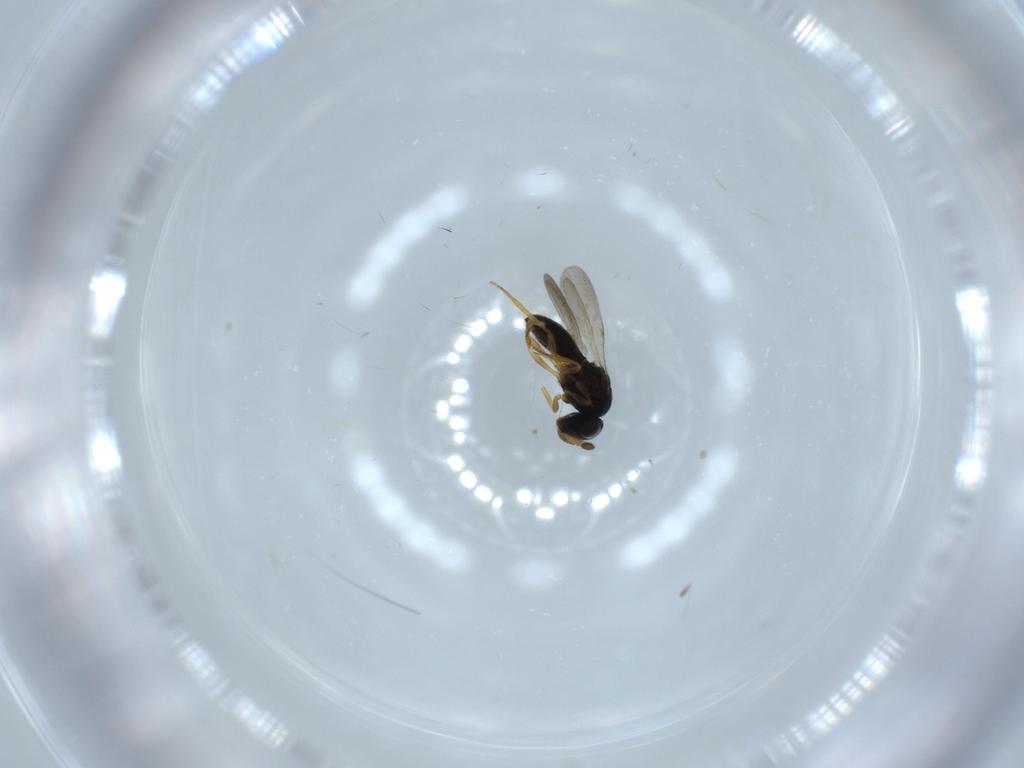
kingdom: Animalia
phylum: Arthropoda
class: Insecta
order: Hymenoptera
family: Scelionidae
